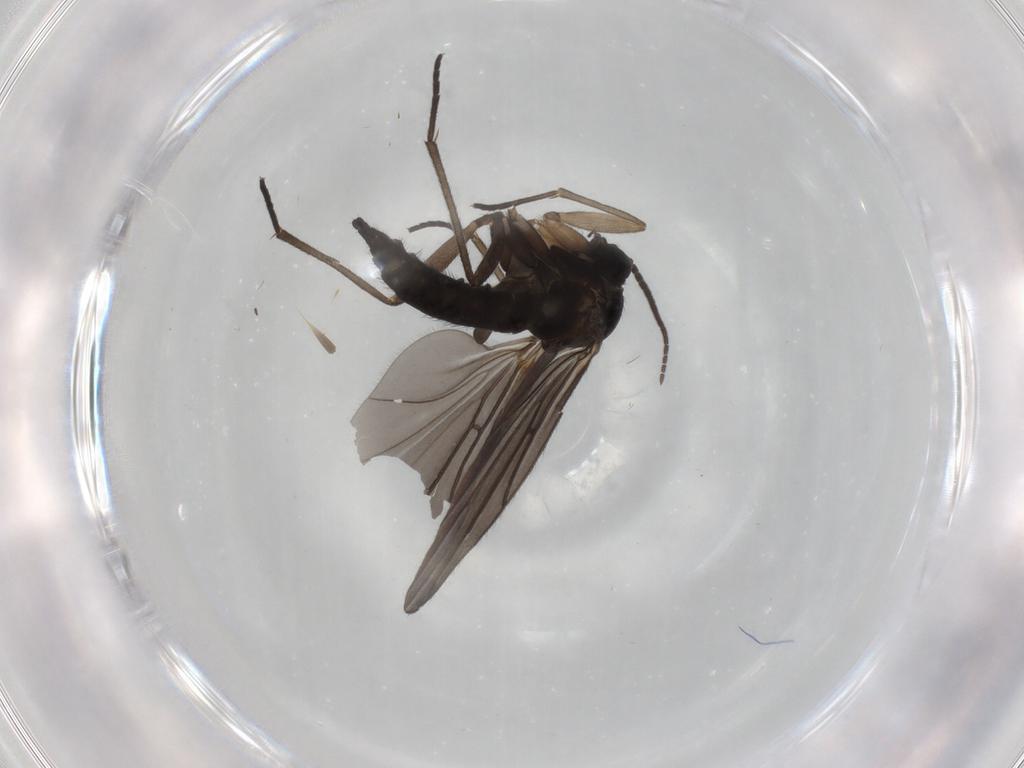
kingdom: Animalia
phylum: Arthropoda
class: Insecta
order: Diptera
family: Sciaridae
